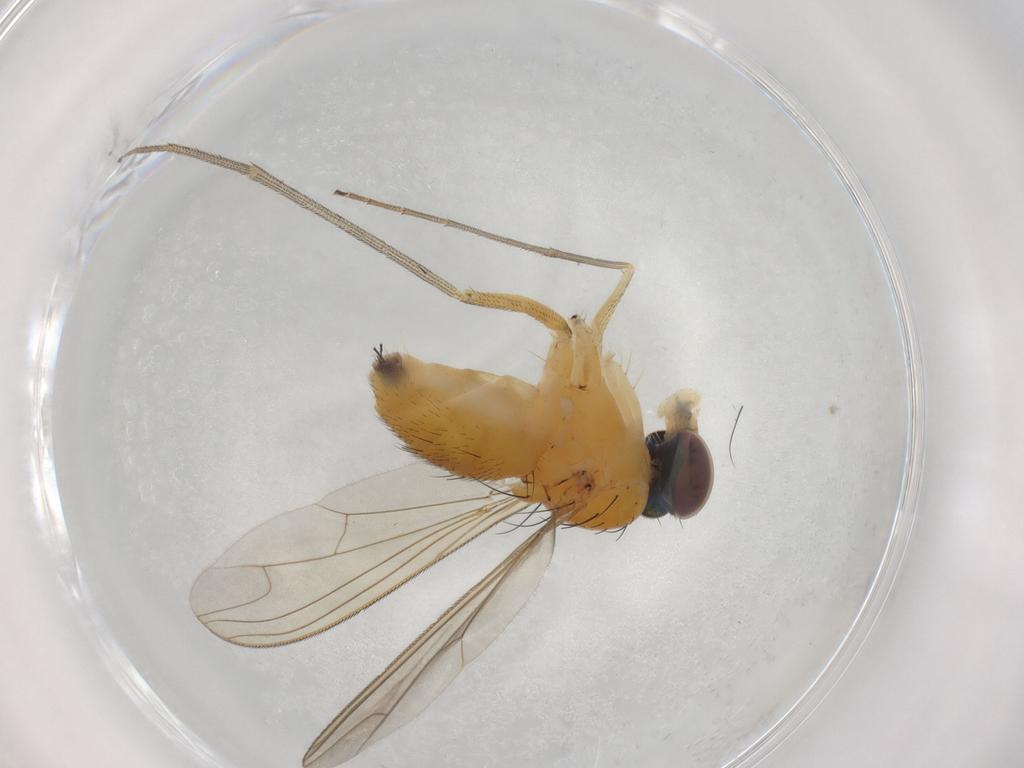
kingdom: Animalia
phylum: Arthropoda
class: Insecta
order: Diptera
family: Dolichopodidae
